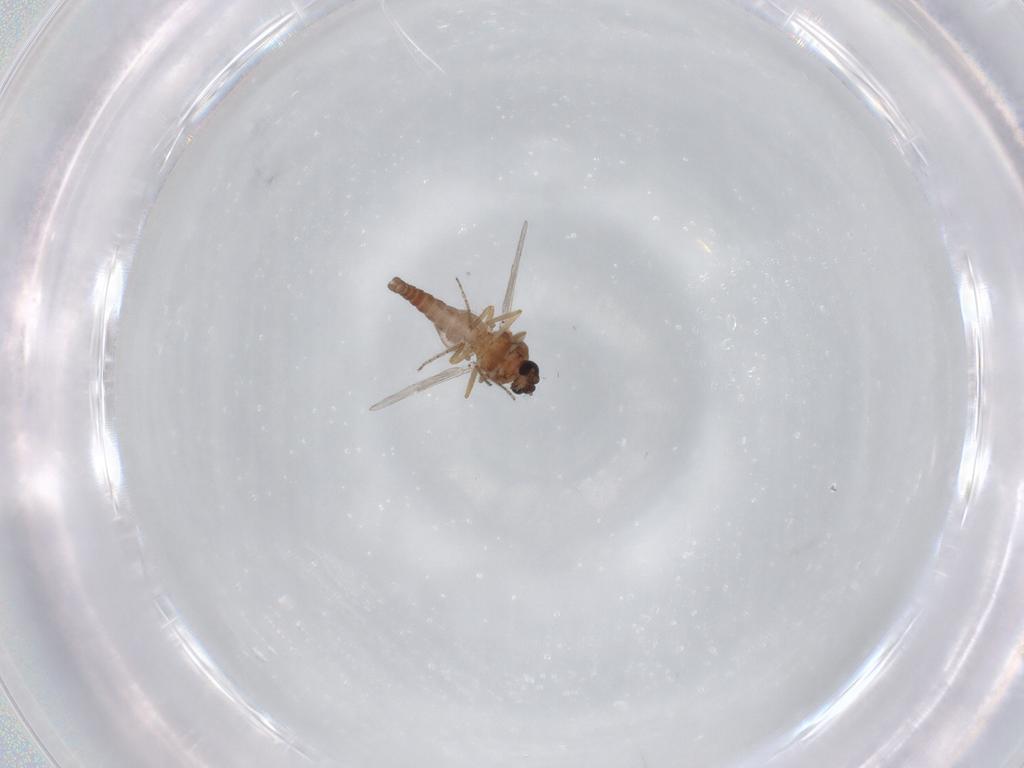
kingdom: Animalia
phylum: Arthropoda
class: Insecta
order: Diptera
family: Ceratopogonidae
